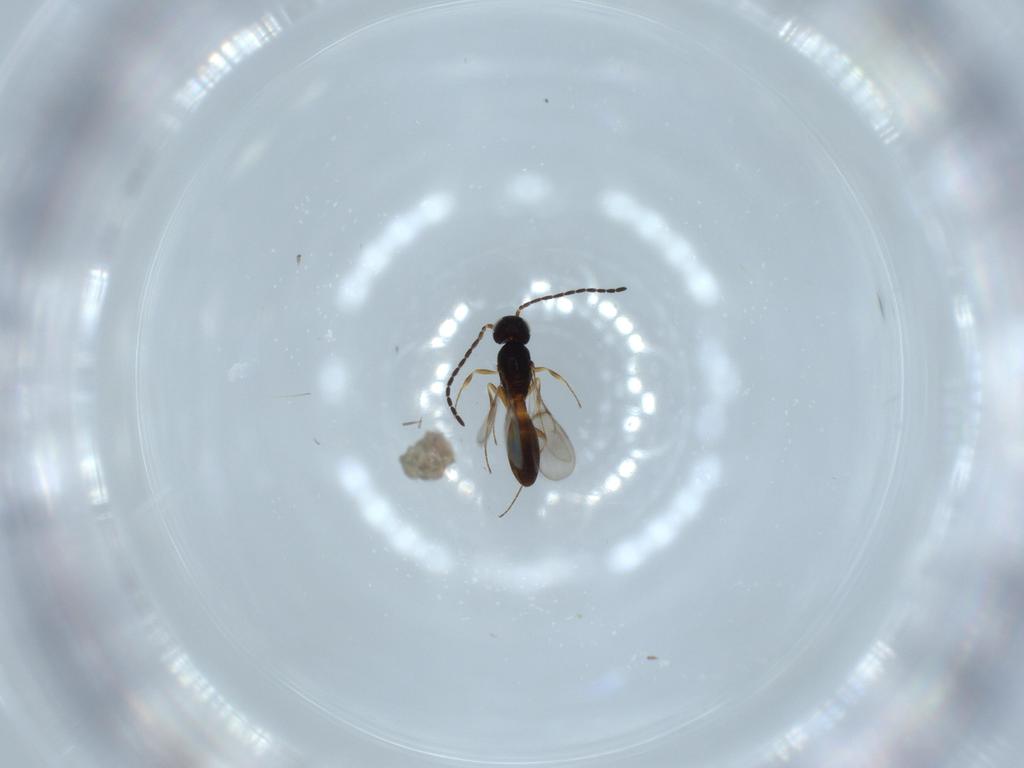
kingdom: Animalia
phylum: Arthropoda
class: Insecta
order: Hymenoptera
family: Scelionidae
